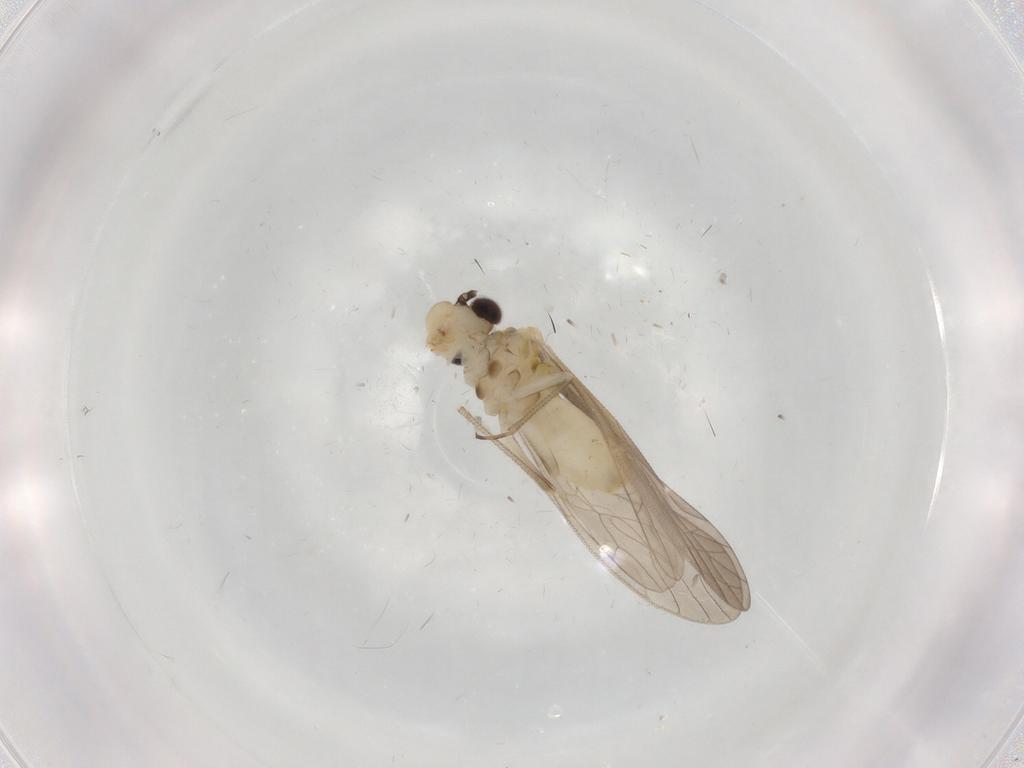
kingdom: Animalia
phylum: Arthropoda
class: Insecta
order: Psocodea
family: Caeciliusidae
